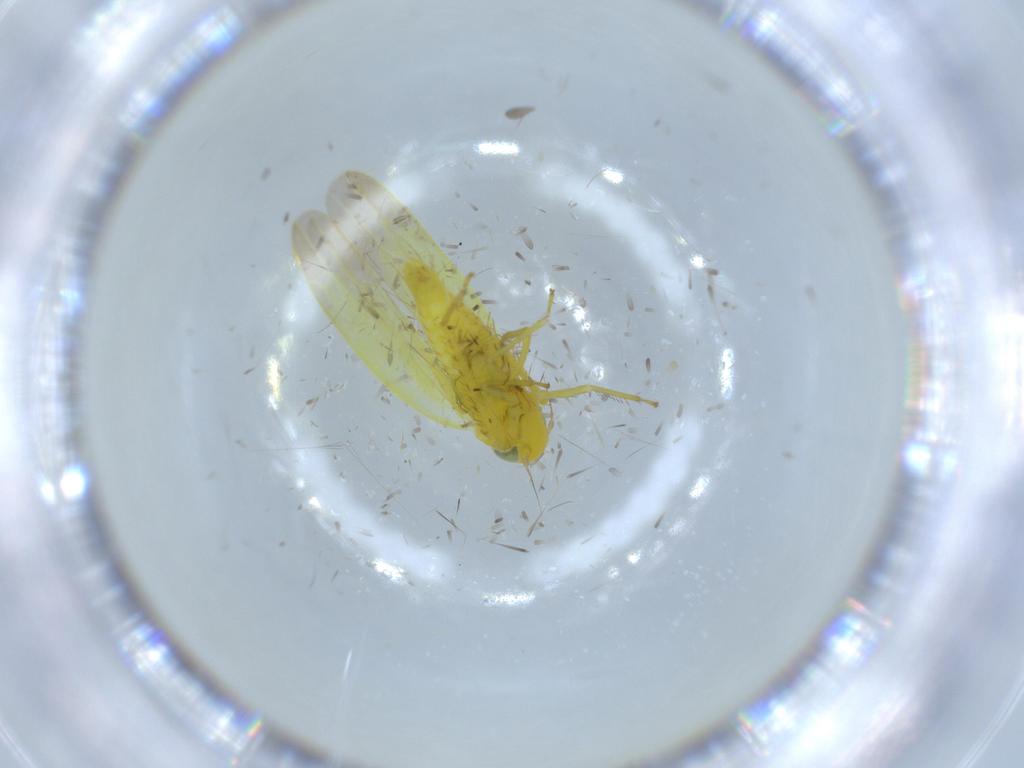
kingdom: Animalia
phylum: Arthropoda
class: Insecta
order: Hemiptera
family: Cicadellidae
